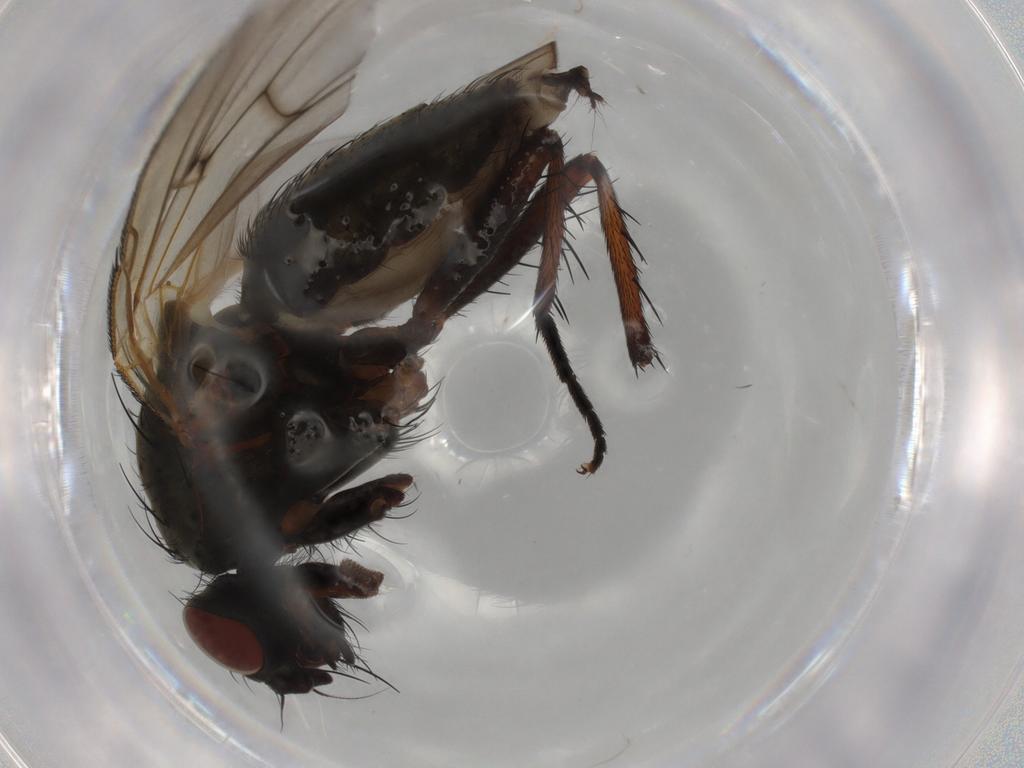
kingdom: Animalia
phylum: Arthropoda
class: Insecta
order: Diptera
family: Anthomyiidae
